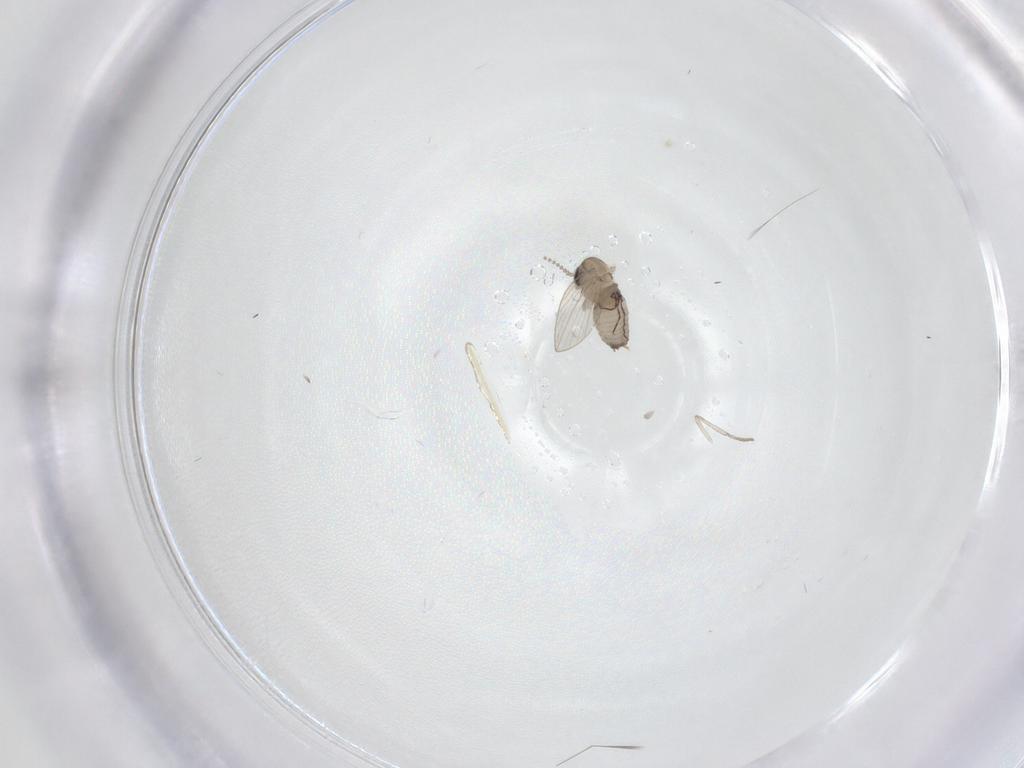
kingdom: Animalia
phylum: Arthropoda
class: Insecta
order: Diptera
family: Psychodidae
